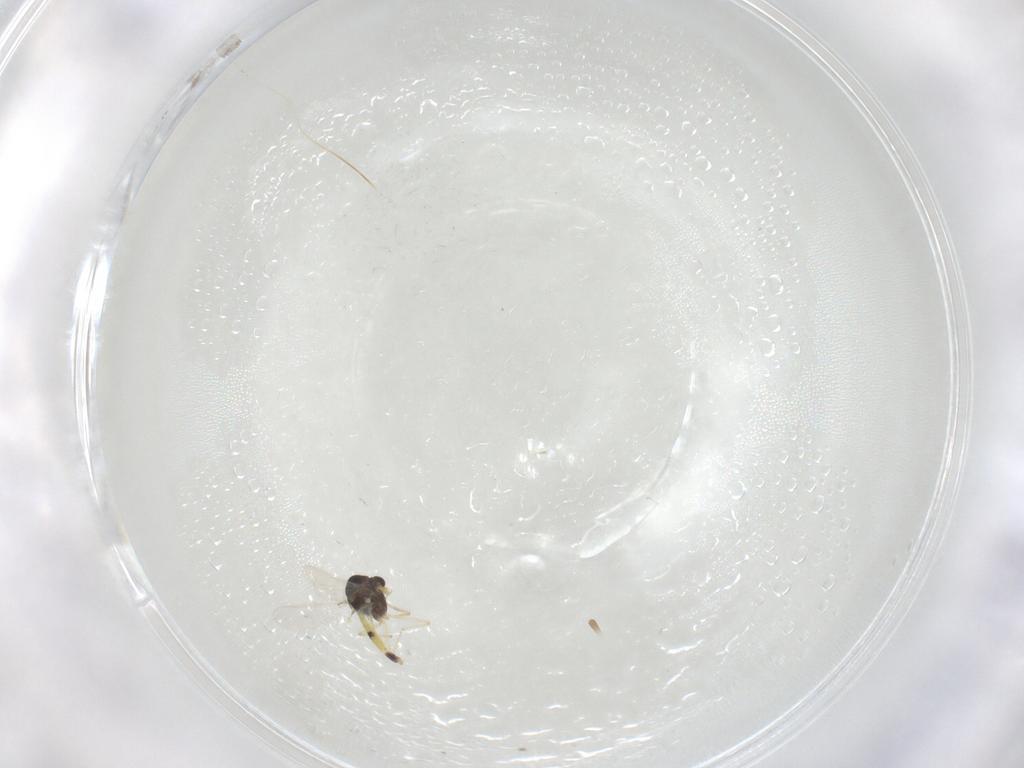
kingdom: Animalia
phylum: Arthropoda
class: Insecta
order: Diptera
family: Chironomidae
